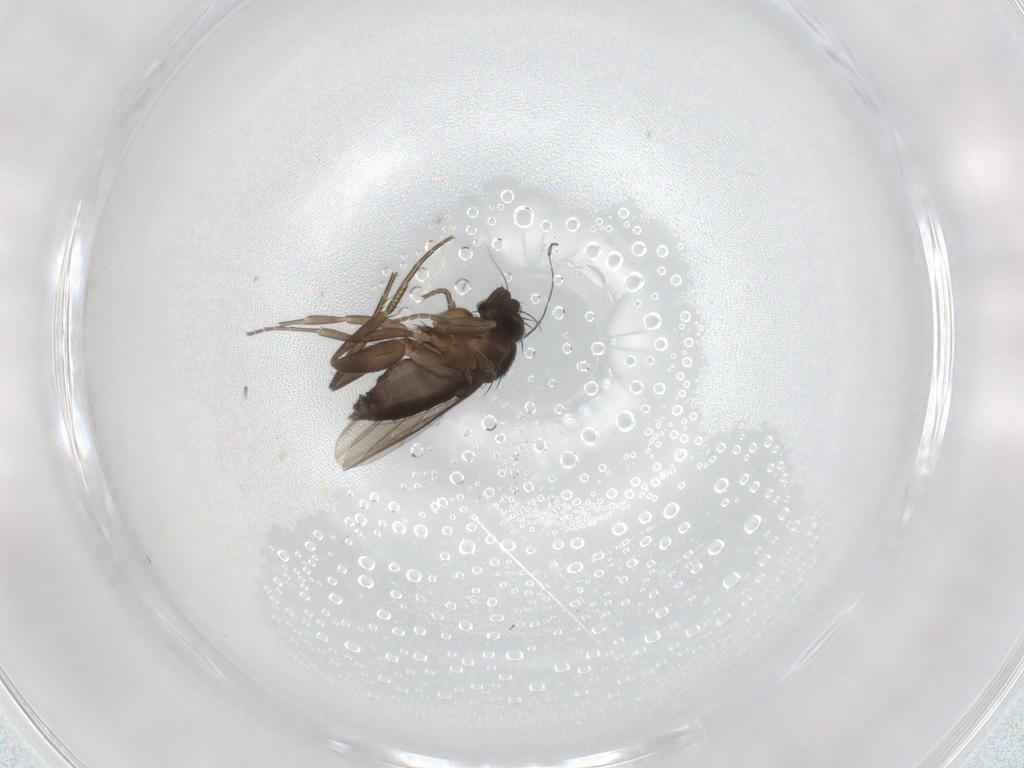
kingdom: Animalia
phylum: Arthropoda
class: Insecta
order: Diptera
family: Phoridae
